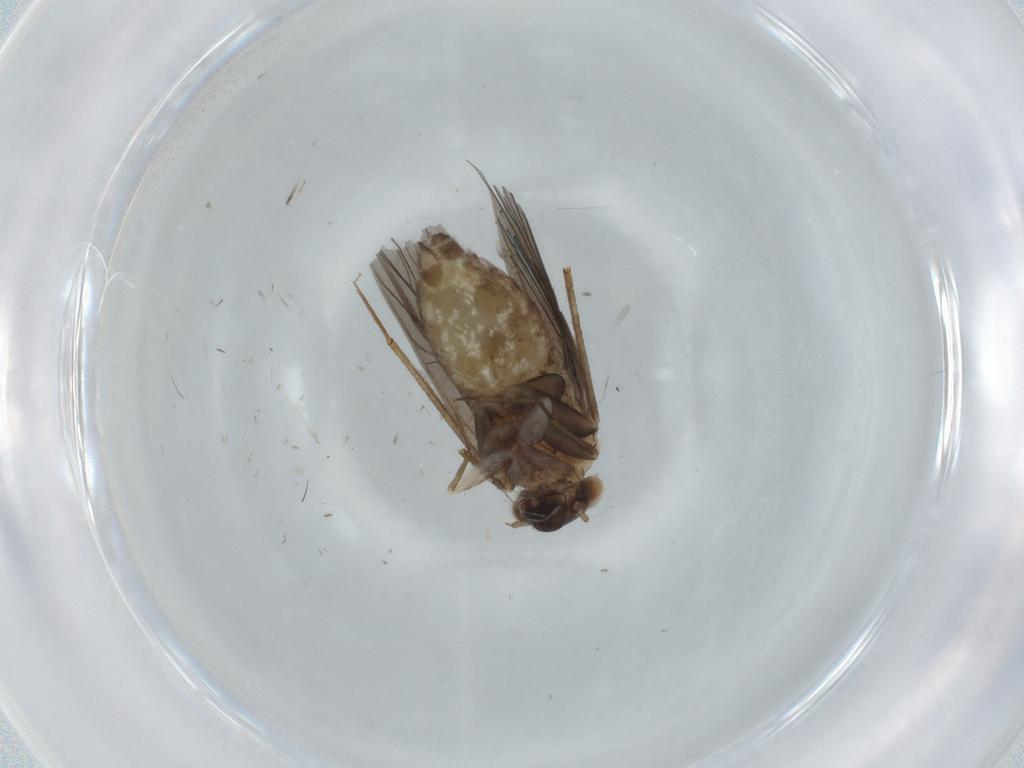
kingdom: Animalia
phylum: Arthropoda
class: Insecta
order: Psocodea
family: Lepidopsocidae
